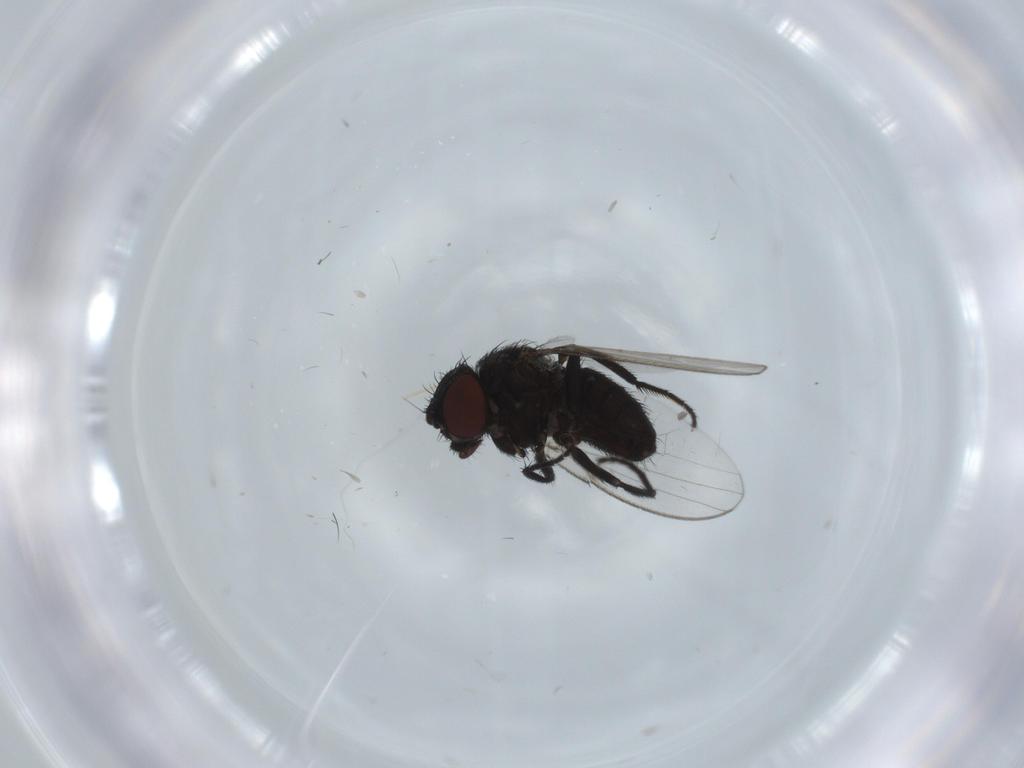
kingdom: Animalia
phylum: Arthropoda
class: Insecta
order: Diptera
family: Milichiidae
